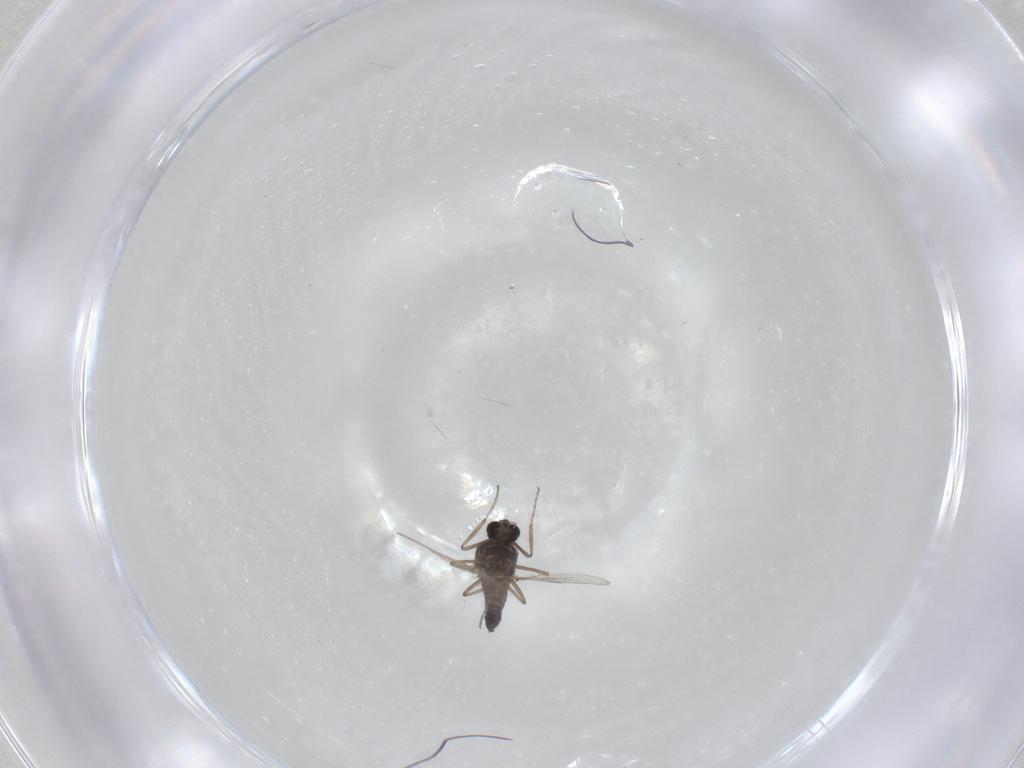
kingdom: Animalia
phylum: Arthropoda
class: Insecta
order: Diptera
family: Ceratopogonidae
